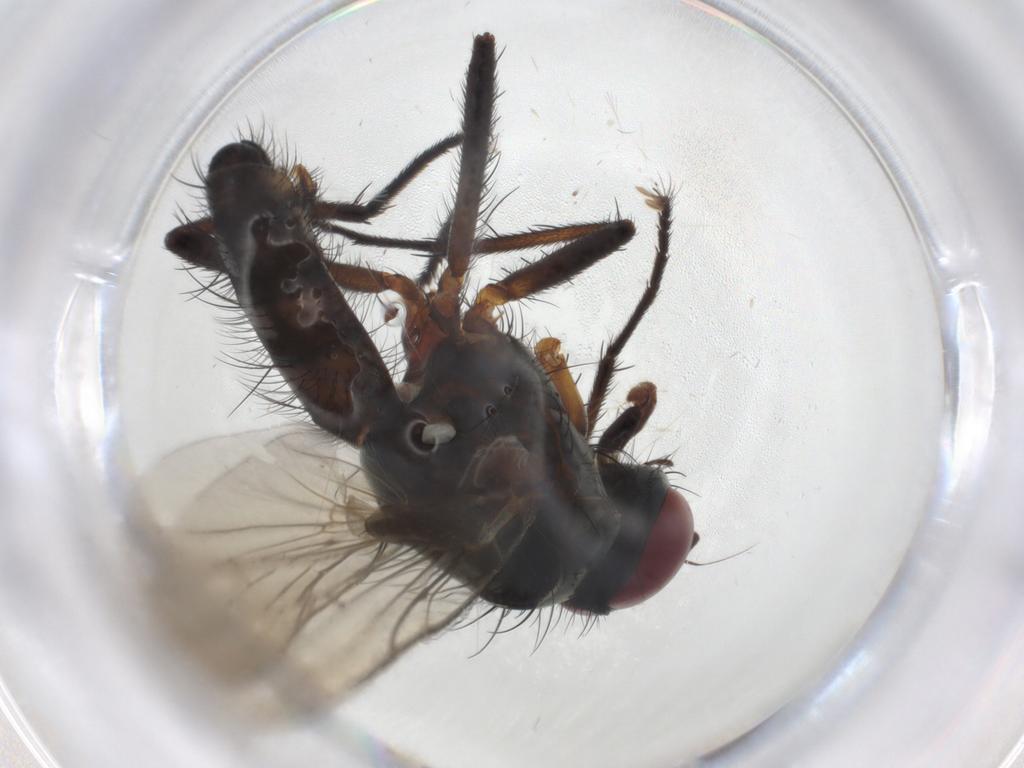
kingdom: Animalia
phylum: Arthropoda
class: Insecta
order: Diptera
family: Anthomyiidae
